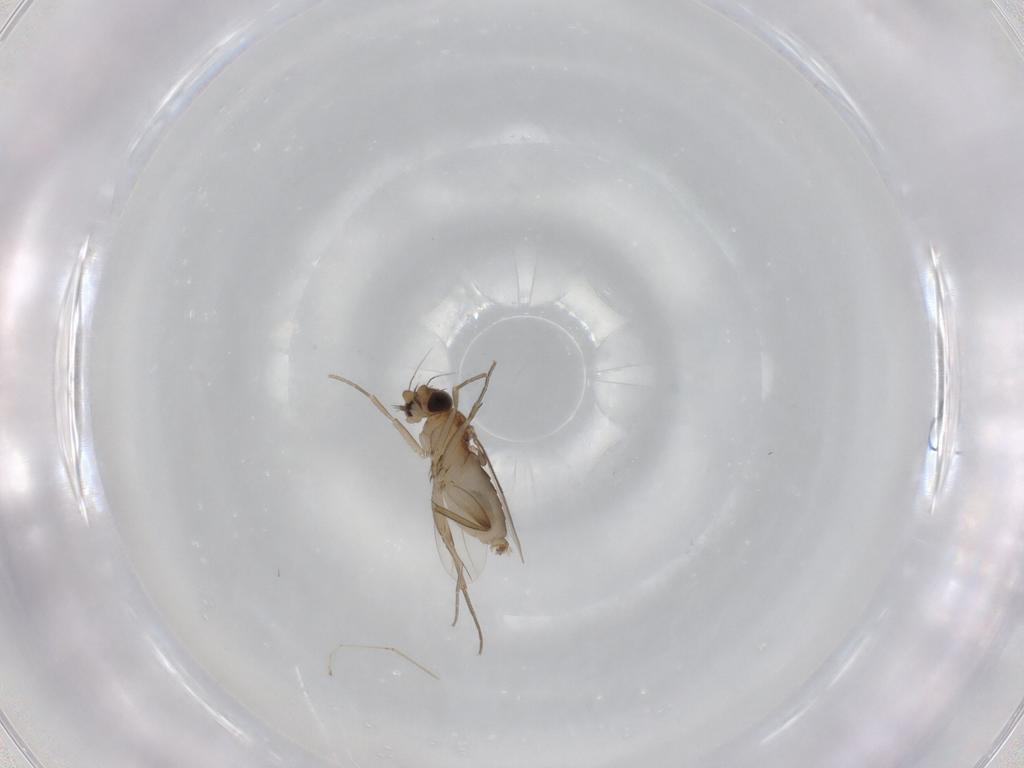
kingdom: Animalia
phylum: Arthropoda
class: Insecta
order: Diptera
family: Phoridae
